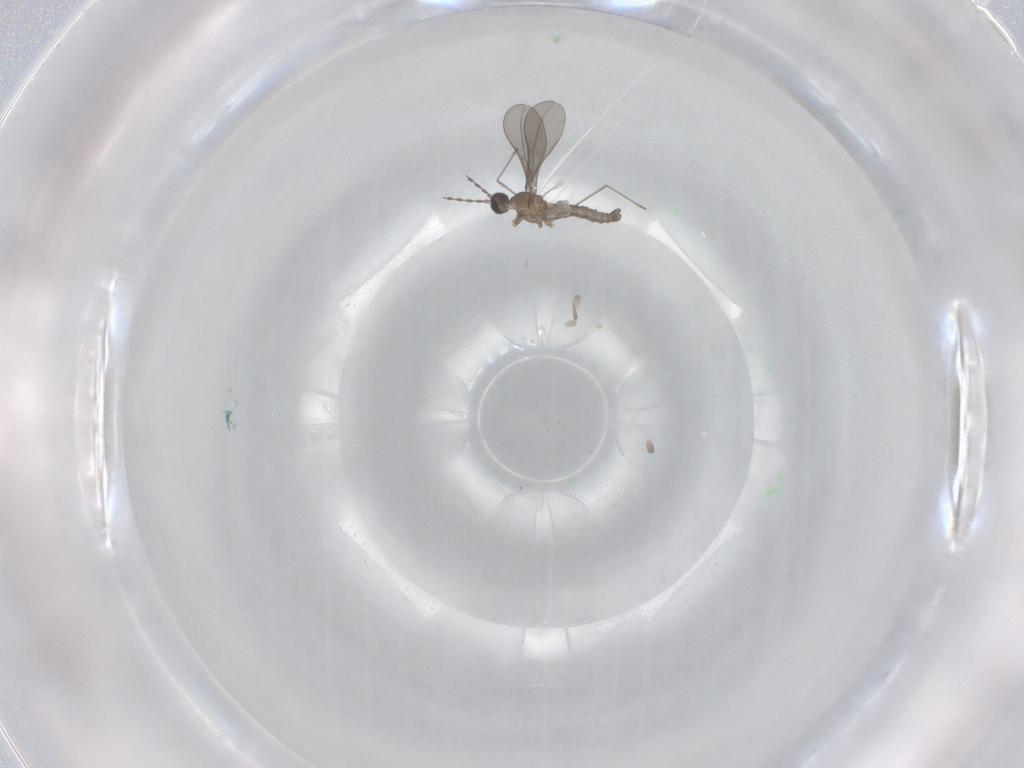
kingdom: Animalia
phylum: Arthropoda
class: Insecta
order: Diptera
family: Cecidomyiidae
